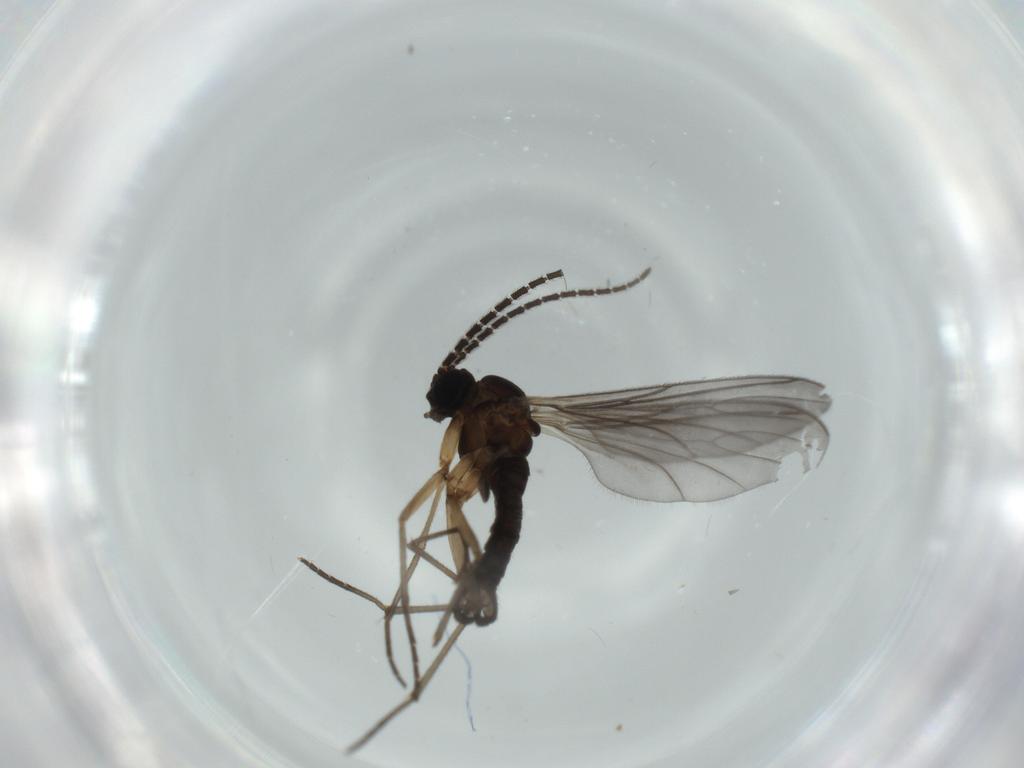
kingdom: Animalia
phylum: Arthropoda
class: Insecta
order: Diptera
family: Sciaridae
